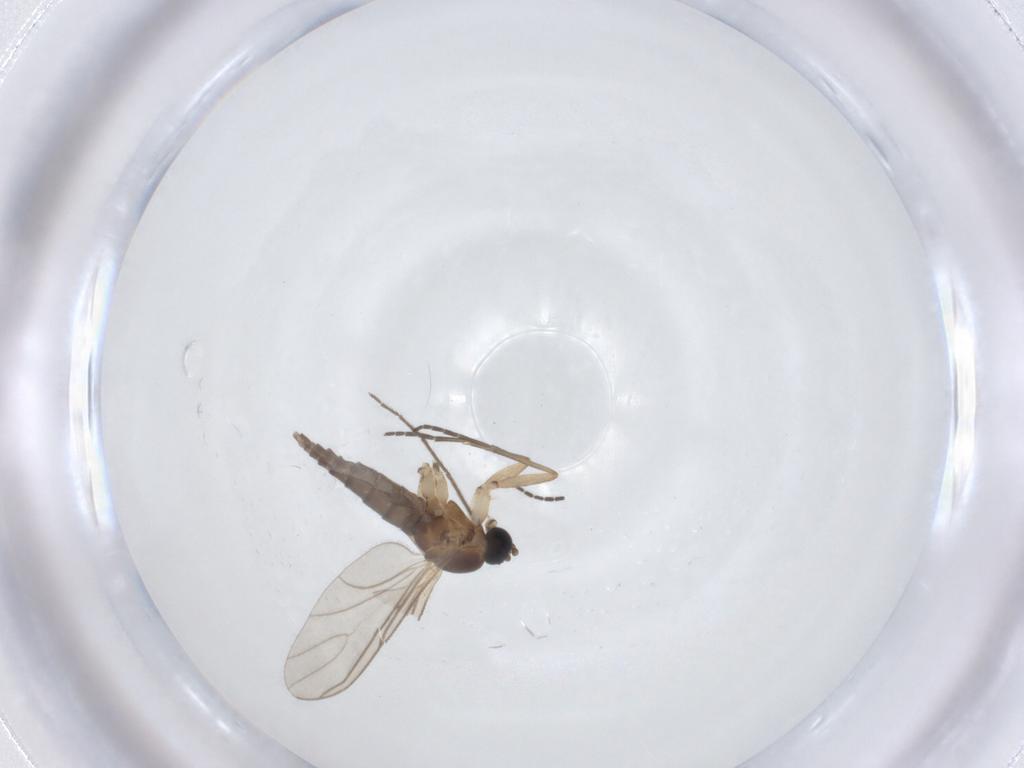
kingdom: Animalia
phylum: Arthropoda
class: Insecta
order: Diptera
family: Sciaridae
